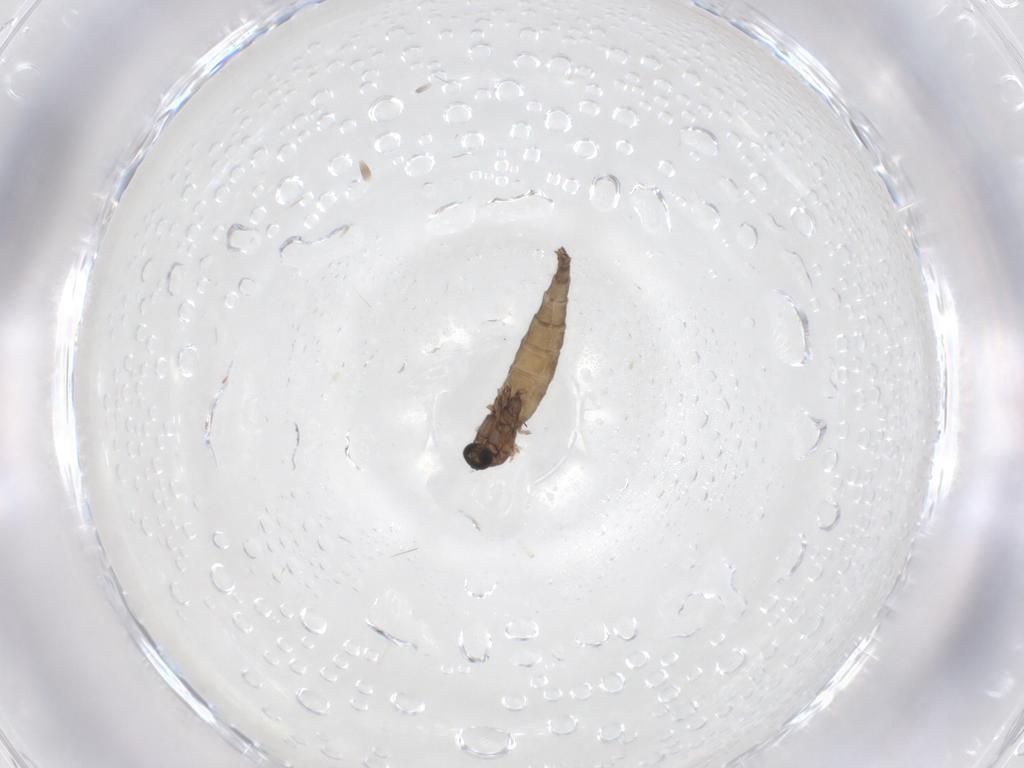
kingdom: Animalia
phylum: Arthropoda
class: Insecta
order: Diptera
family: Sciaridae
